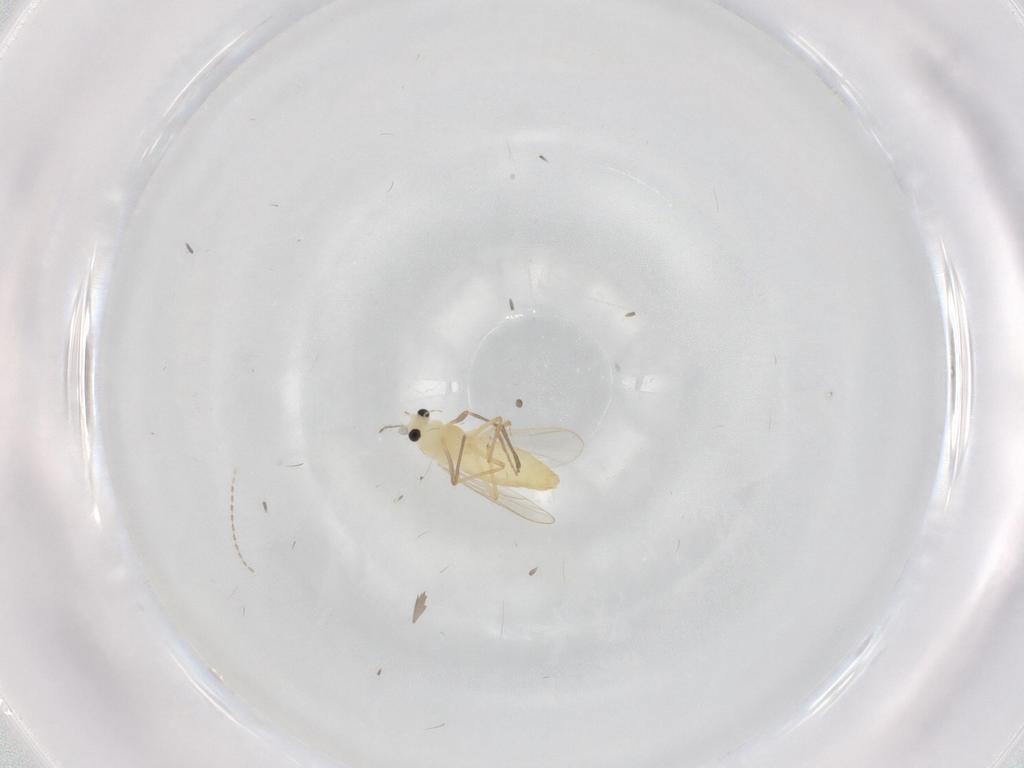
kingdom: Animalia
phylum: Arthropoda
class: Insecta
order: Diptera
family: Chironomidae
